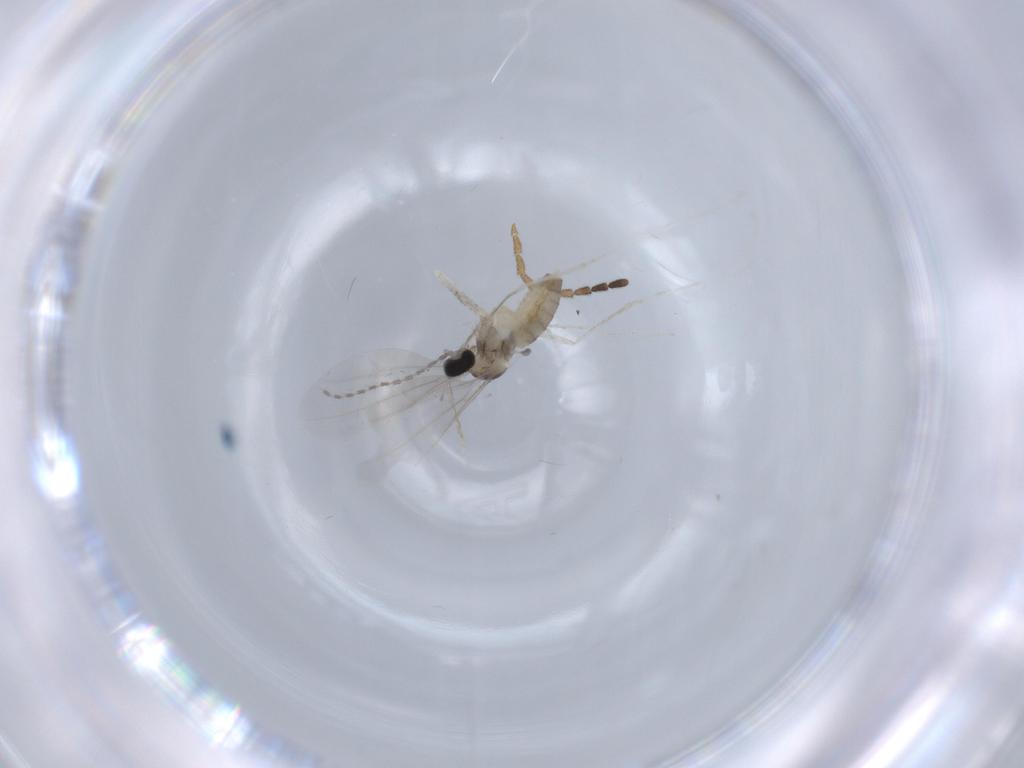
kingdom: Animalia
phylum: Arthropoda
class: Insecta
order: Diptera
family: Cecidomyiidae
